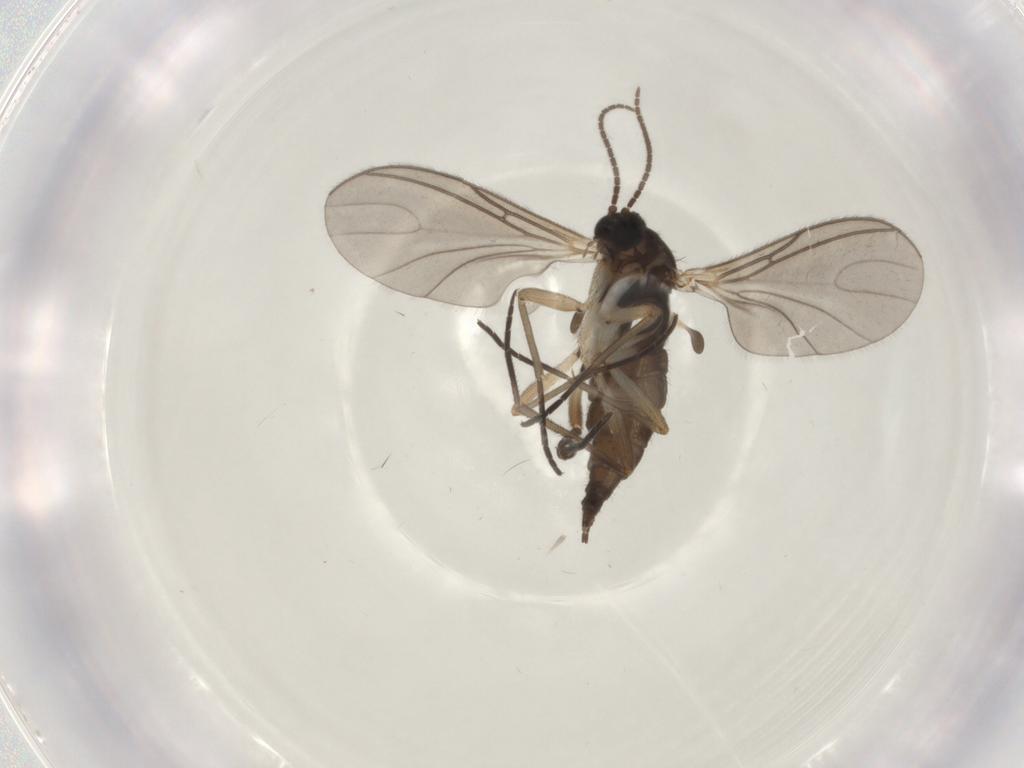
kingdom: Animalia
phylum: Arthropoda
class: Insecta
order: Diptera
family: Sciaridae
